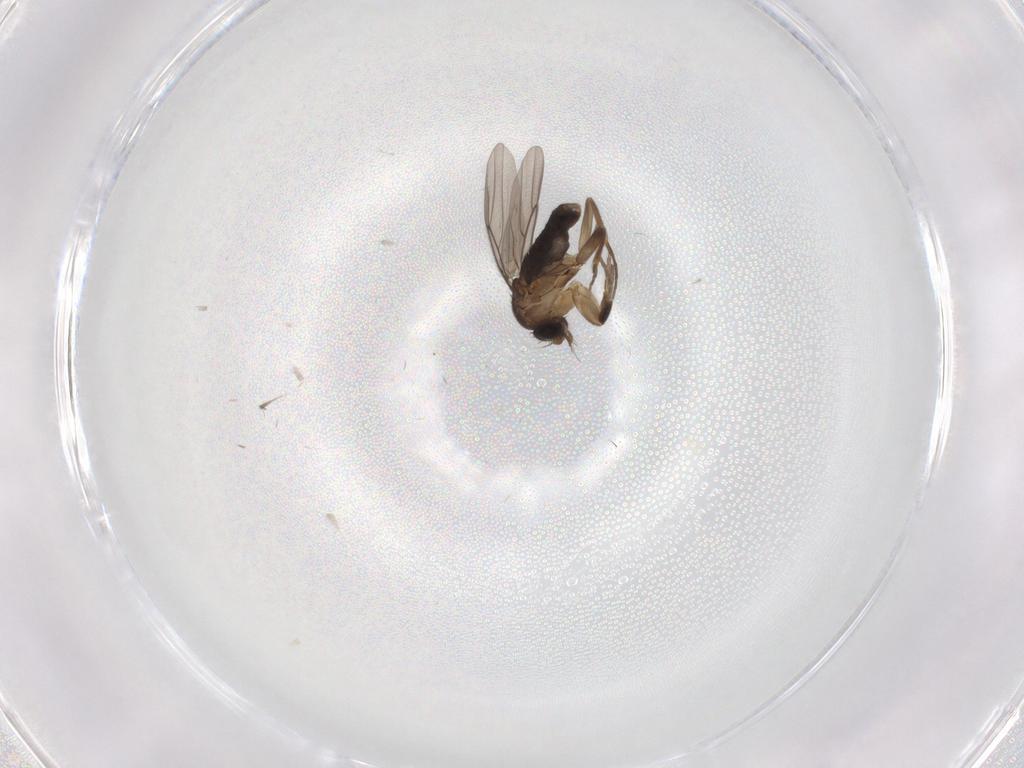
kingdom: Animalia
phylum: Arthropoda
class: Insecta
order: Diptera
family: Phoridae
